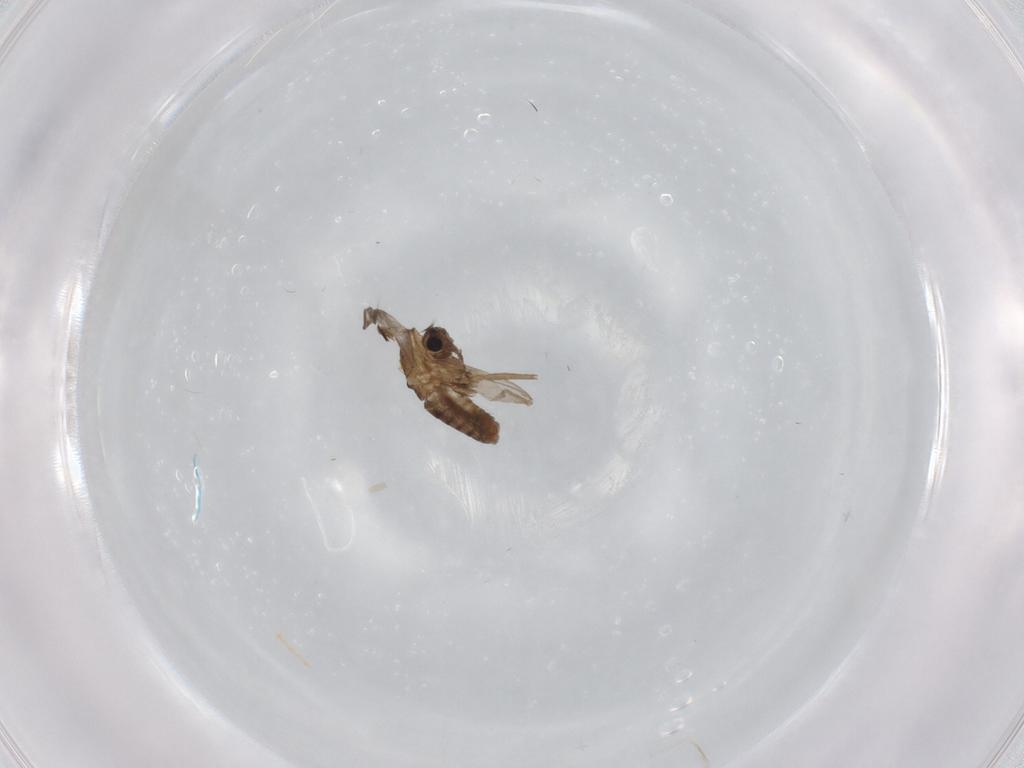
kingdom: Animalia
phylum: Arthropoda
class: Insecta
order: Diptera
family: Chironomidae
